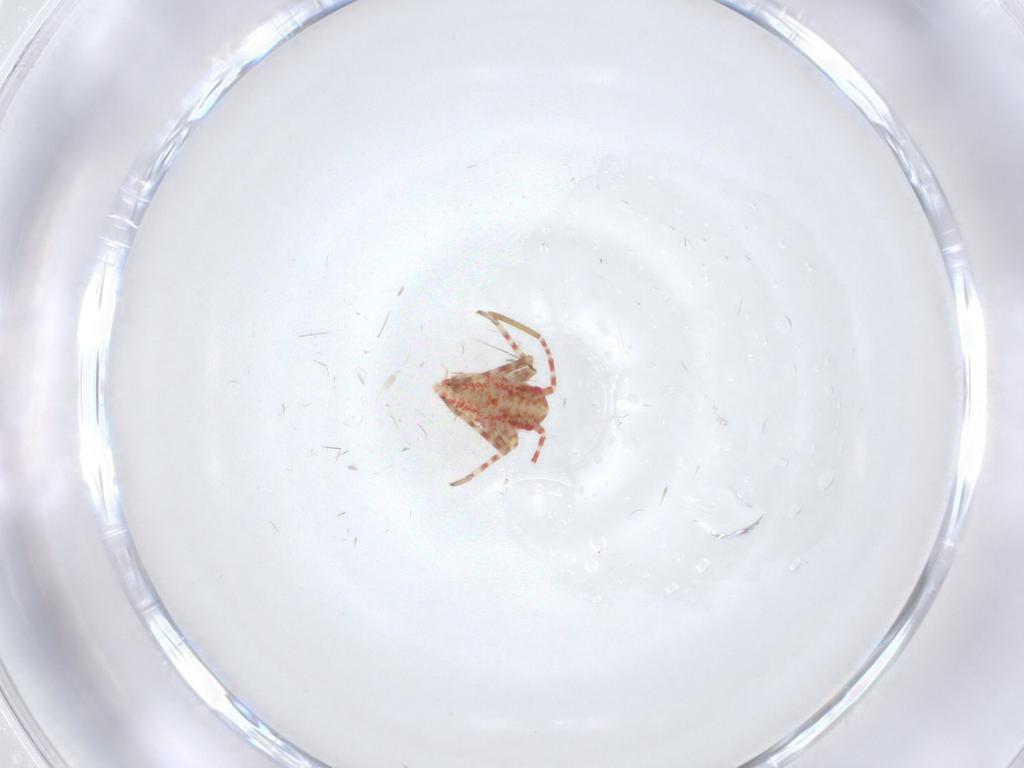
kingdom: Animalia
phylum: Arthropoda
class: Insecta
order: Hemiptera
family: Miridae
